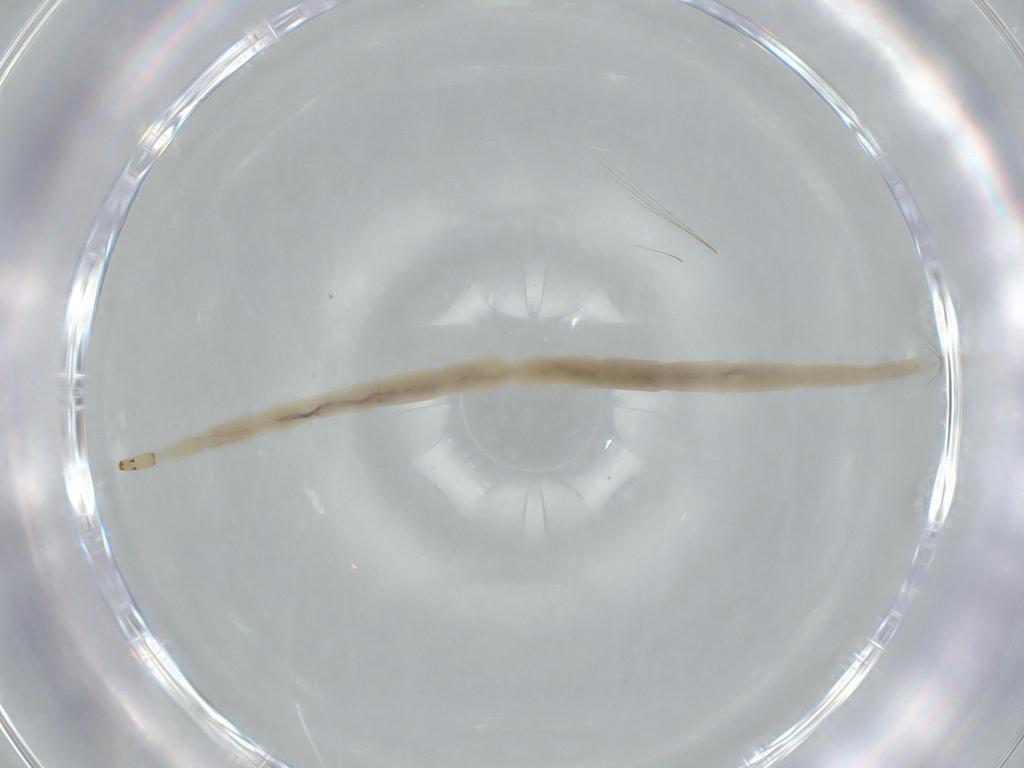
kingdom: Animalia
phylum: Arthropoda
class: Insecta
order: Diptera
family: Ceratopogonidae
